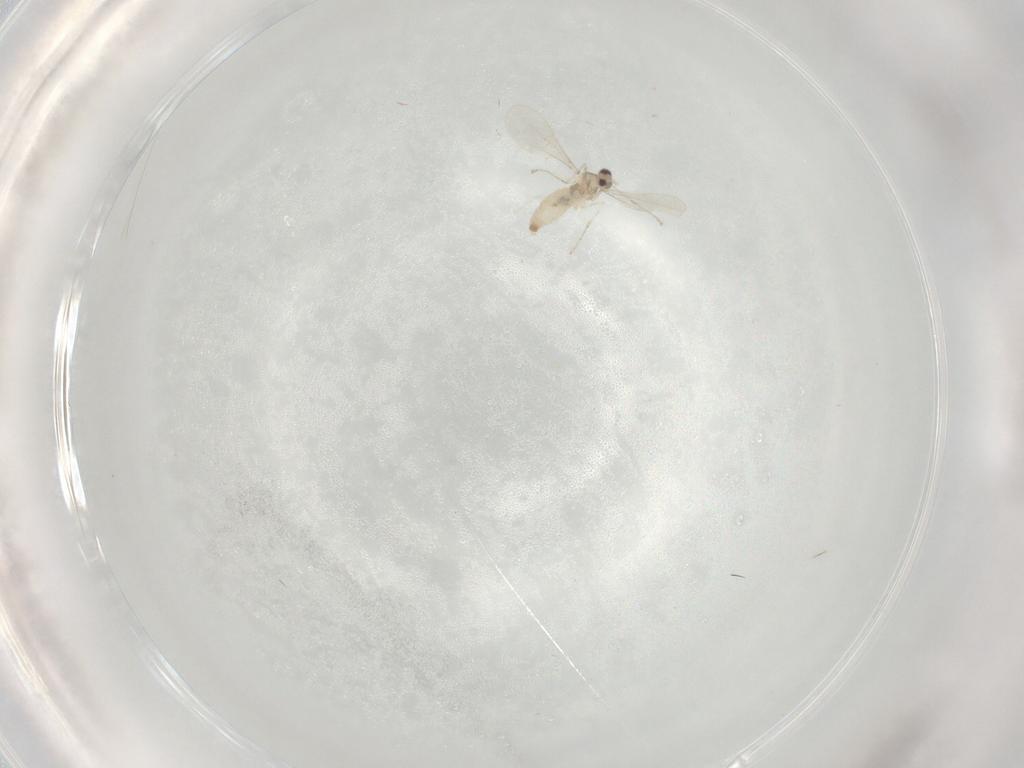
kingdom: Animalia
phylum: Arthropoda
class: Insecta
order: Diptera
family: Cecidomyiidae
